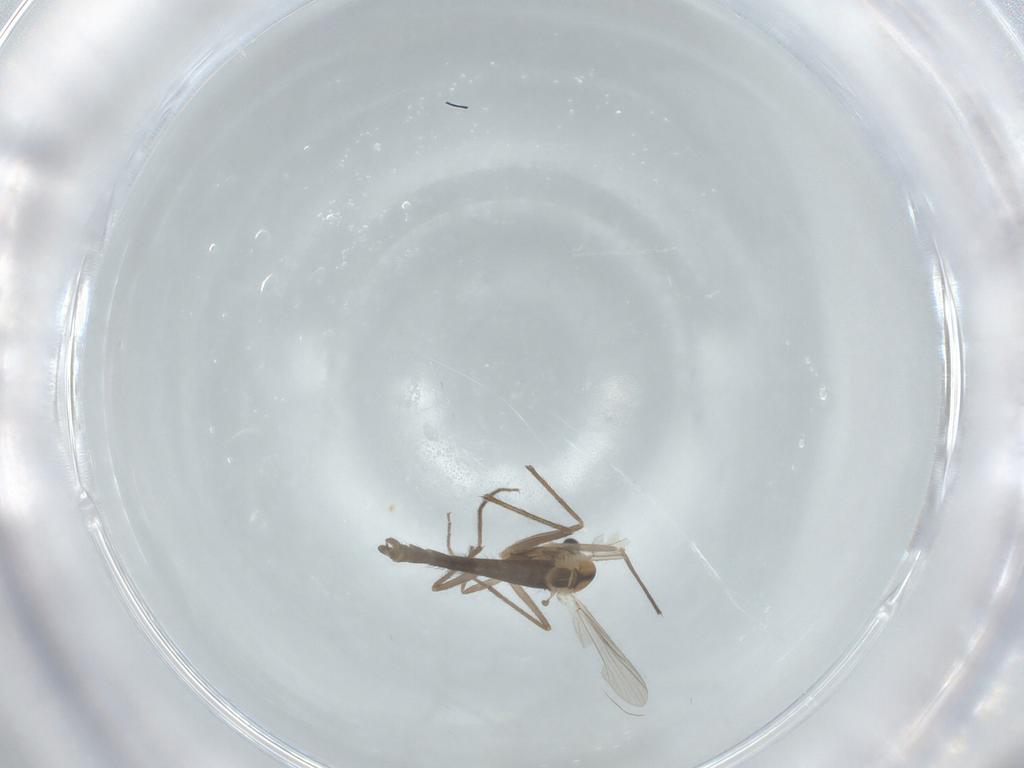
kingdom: Animalia
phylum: Arthropoda
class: Insecta
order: Diptera
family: Chironomidae
